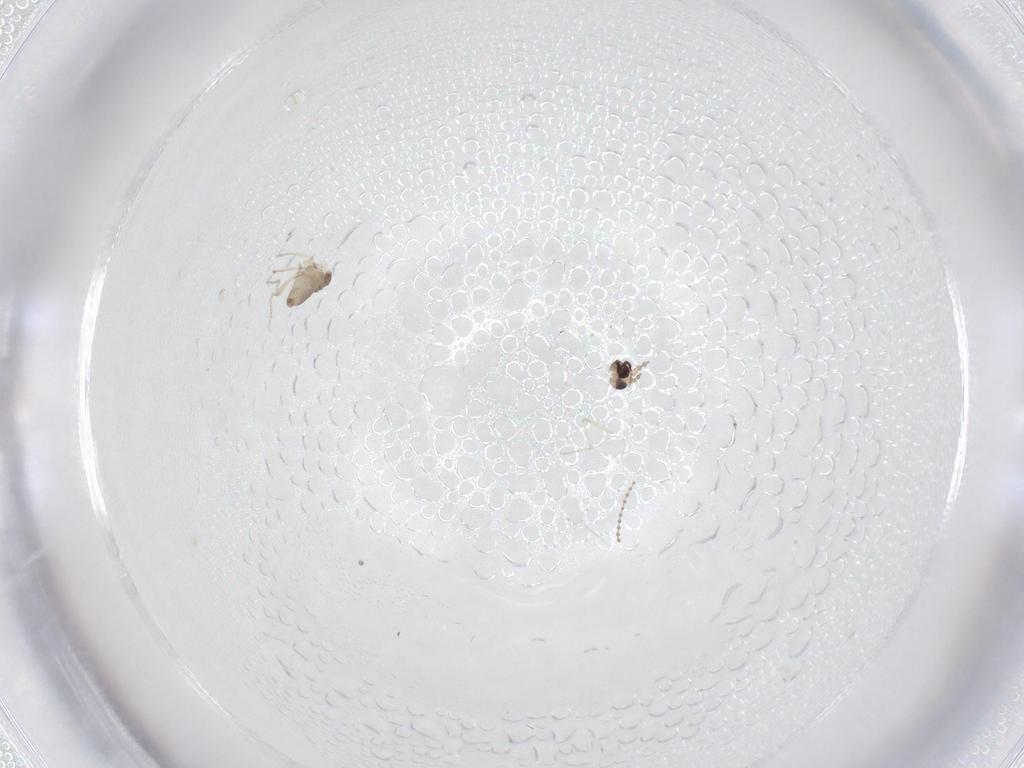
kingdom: Animalia
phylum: Arthropoda
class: Insecta
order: Diptera
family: Cecidomyiidae
